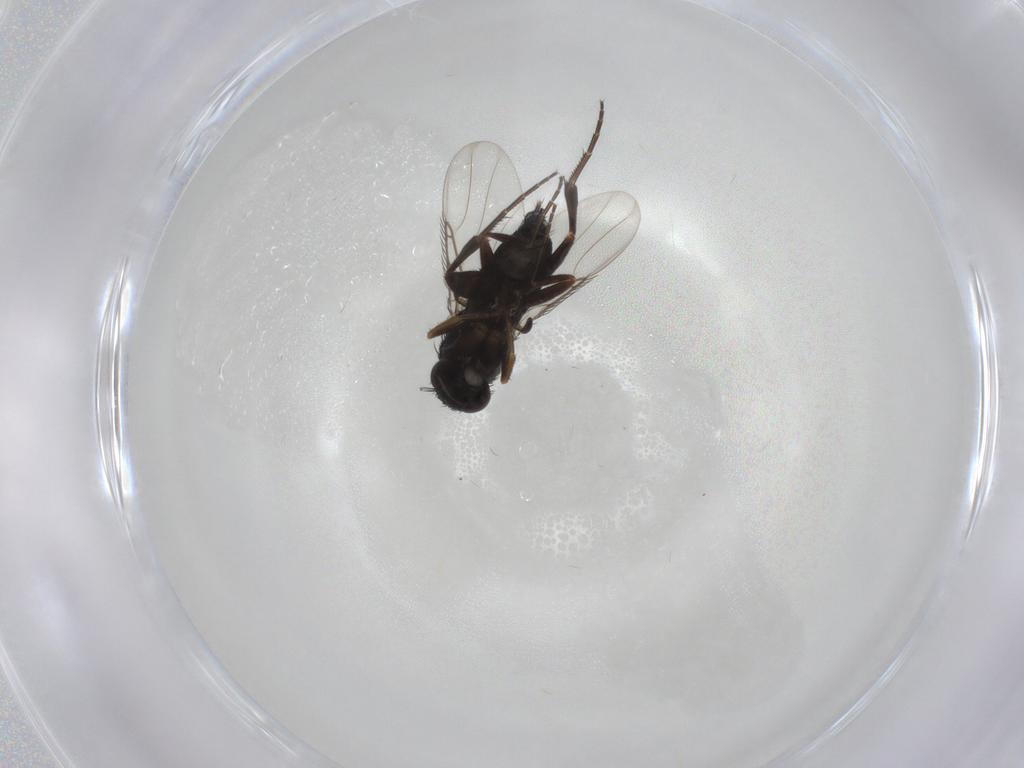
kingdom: Animalia
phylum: Arthropoda
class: Insecta
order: Diptera
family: Phoridae
